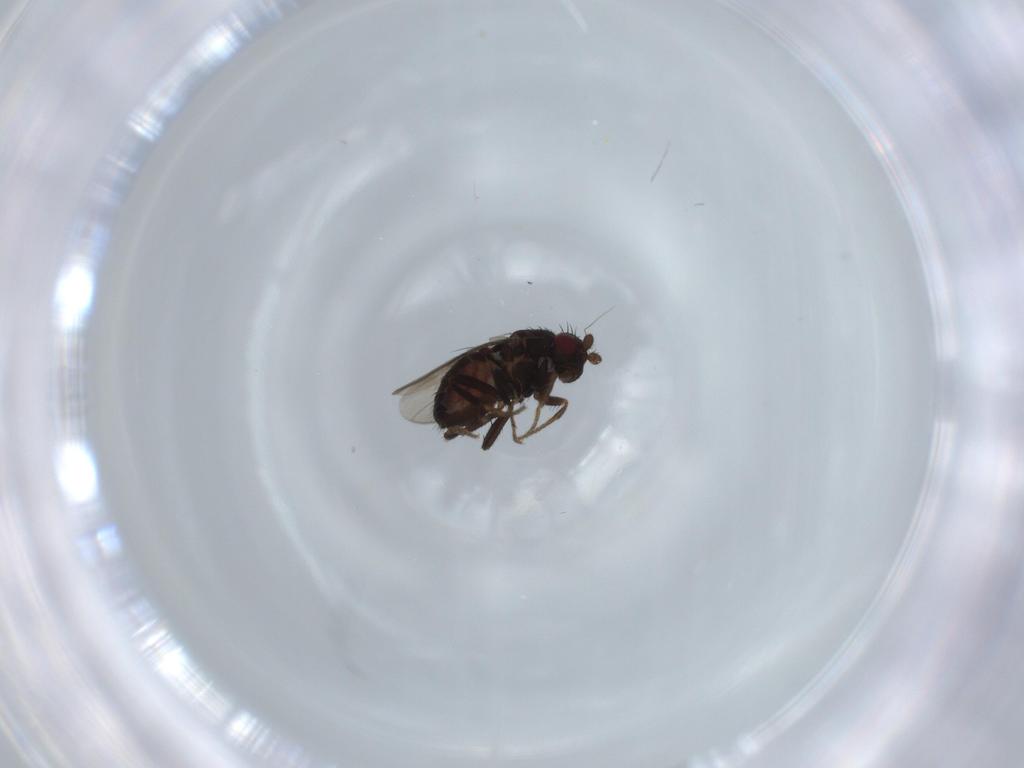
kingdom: Animalia
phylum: Arthropoda
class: Insecta
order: Diptera
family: Sphaeroceridae
